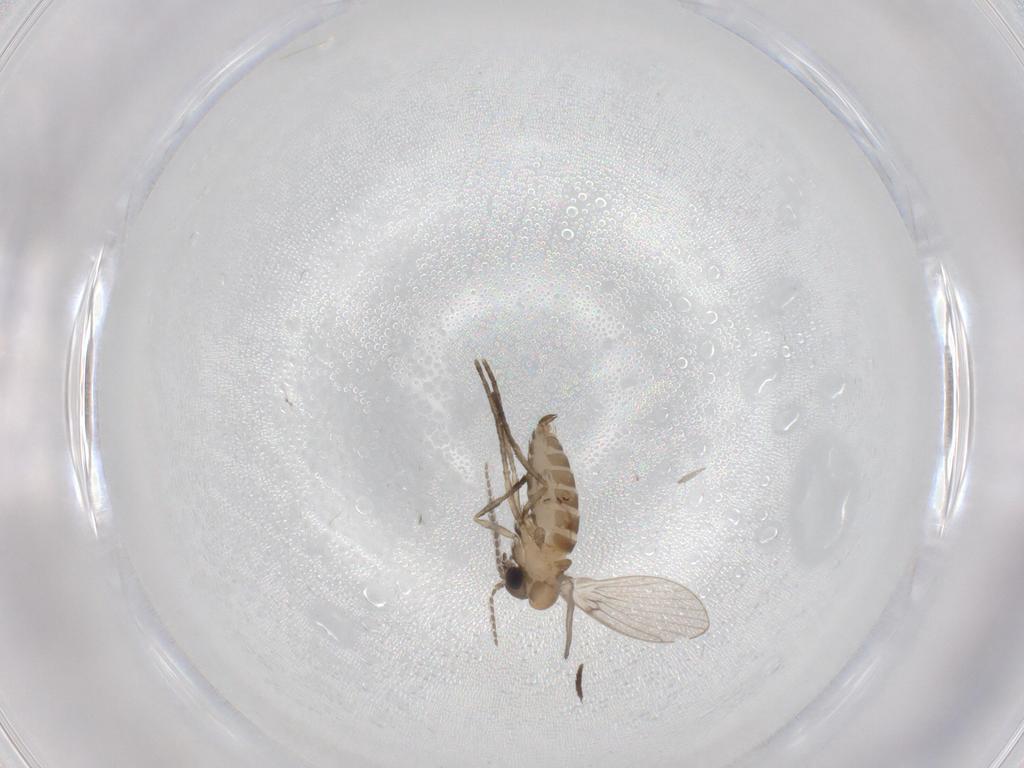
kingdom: Animalia
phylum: Arthropoda
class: Insecta
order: Diptera
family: Psychodidae
